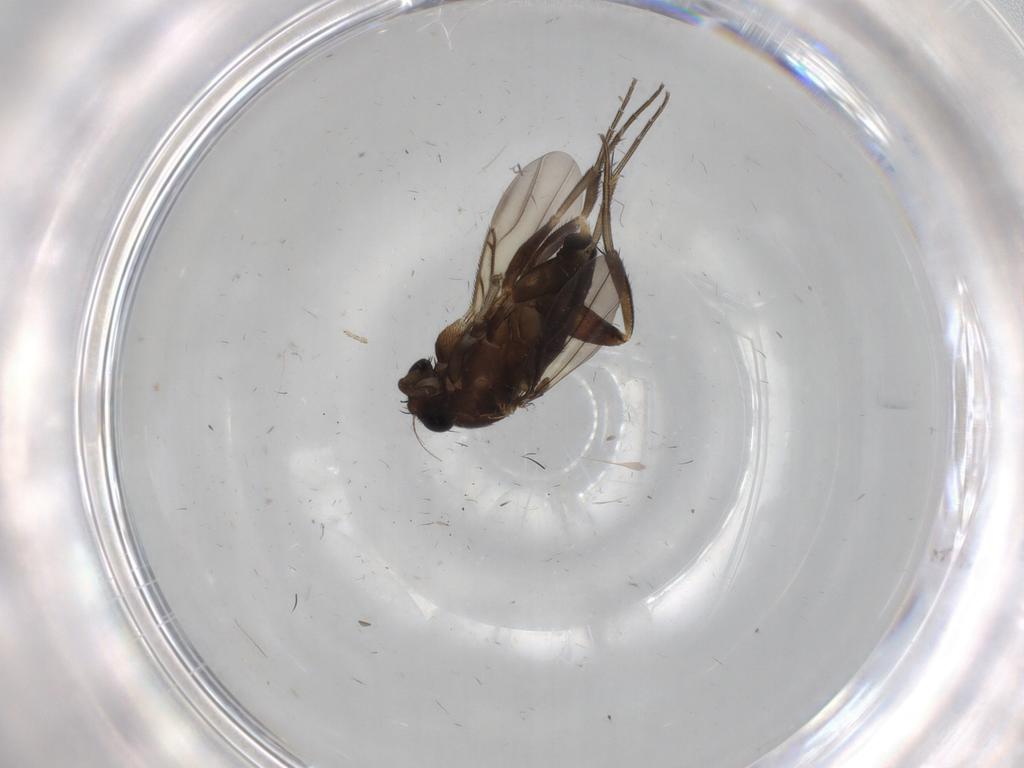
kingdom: Animalia
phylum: Arthropoda
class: Insecta
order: Diptera
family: Phoridae
